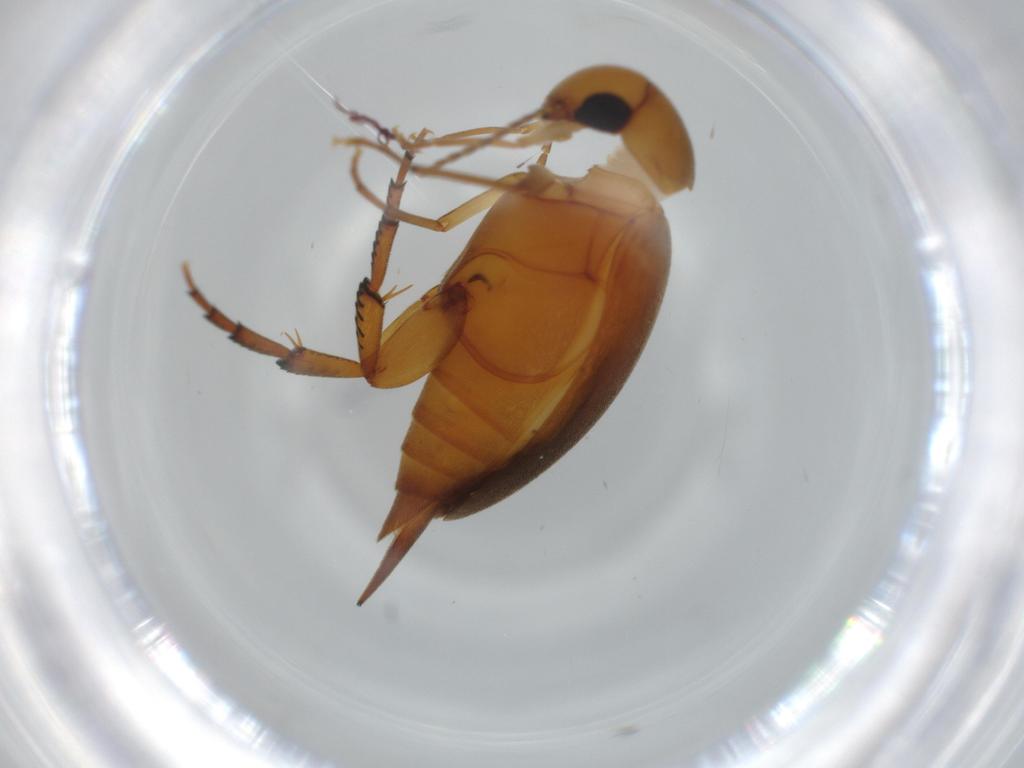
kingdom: Animalia
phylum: Arthropoda
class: Insecta
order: Coleoptera
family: Mordellidae
